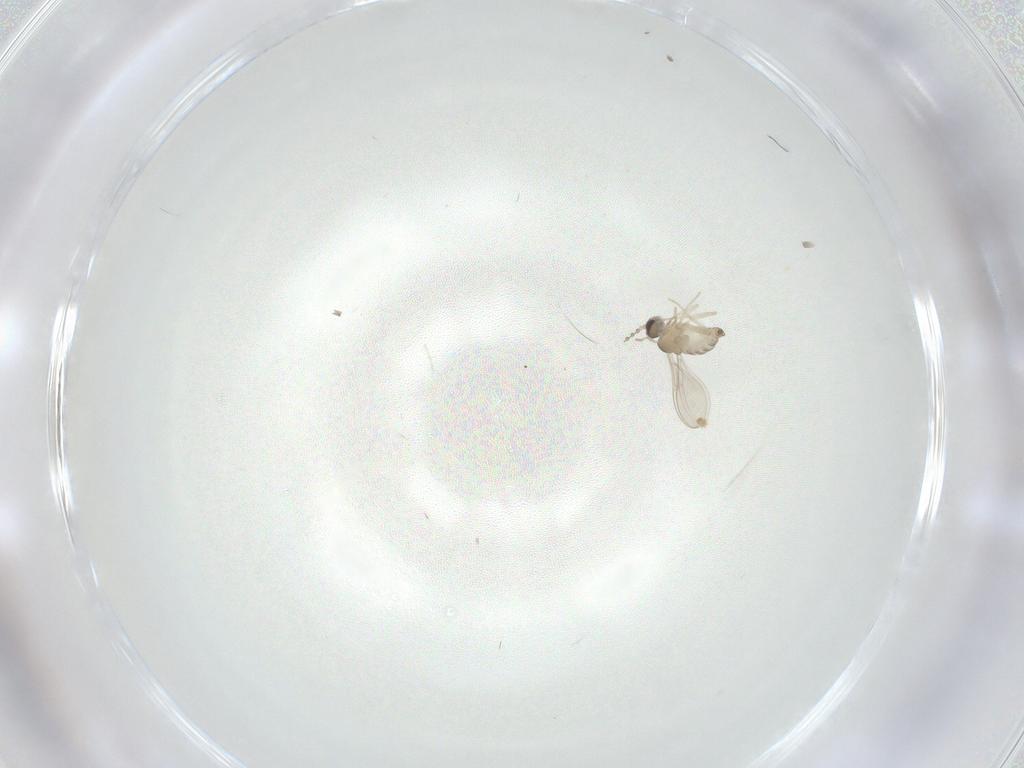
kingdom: Animalia
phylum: Arthropoda
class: Insecta
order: Diptera
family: Cecidomyiidae
